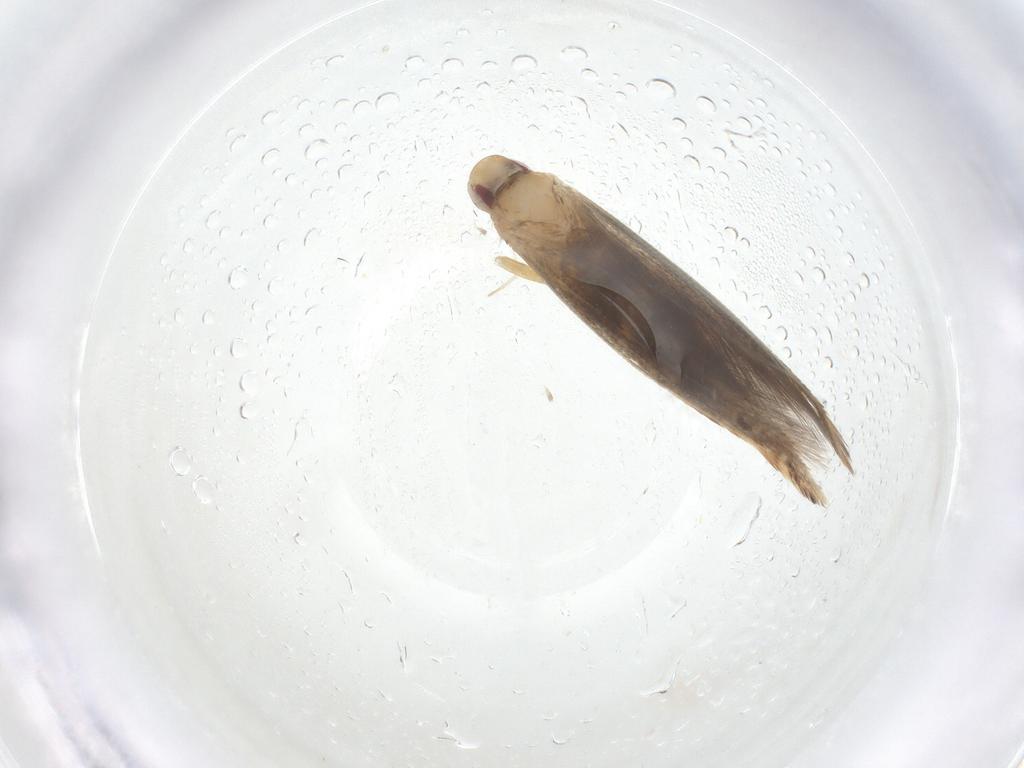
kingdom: Animalia
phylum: Arthropoda
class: Insecta
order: Lepidoptera
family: Cosmopterigidae
